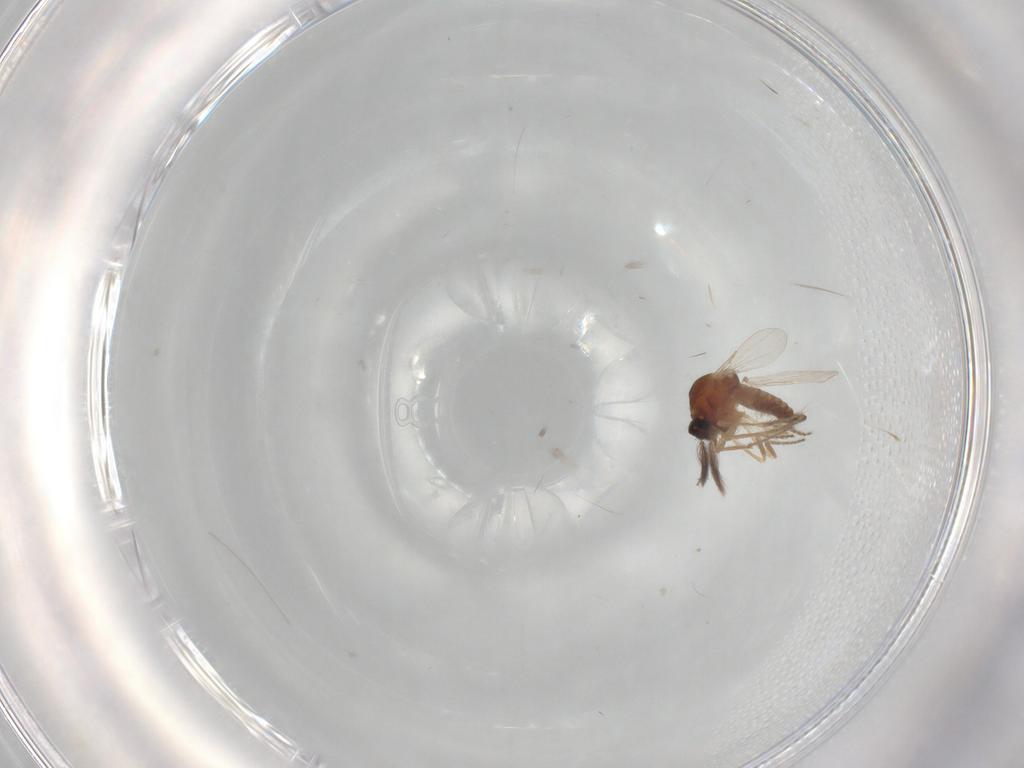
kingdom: Animalia
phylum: Arthropoda
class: Insecta
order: Diptera
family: Ceratopogonidae
